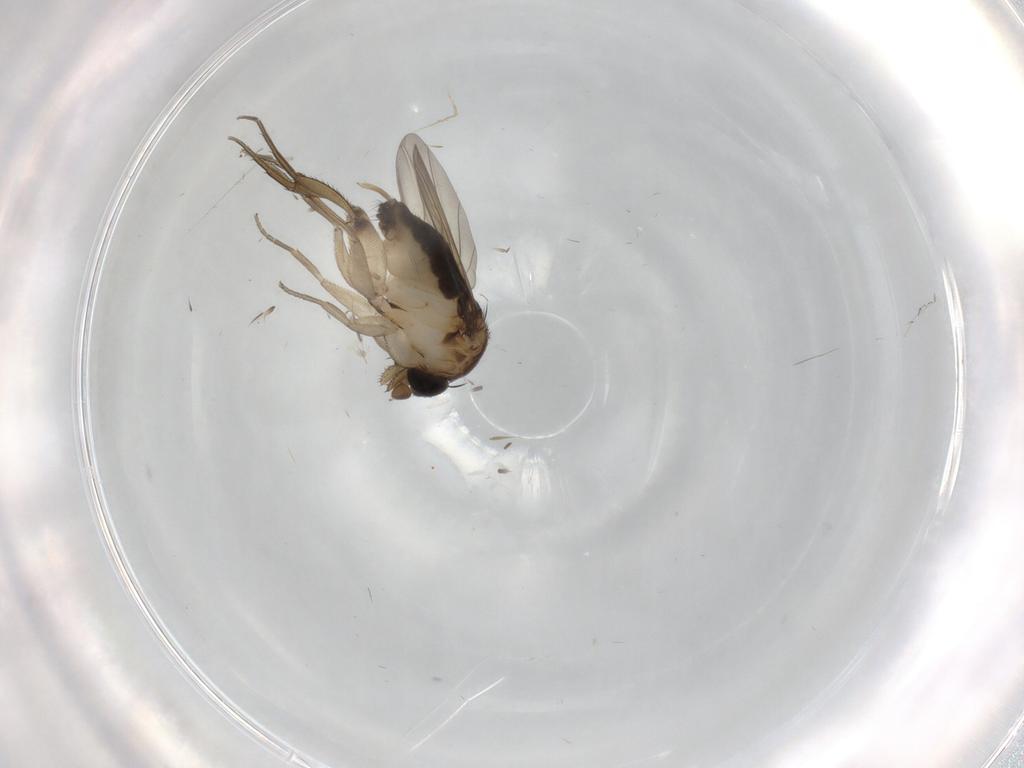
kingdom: Animalia
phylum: Arthropoda
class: Insecta
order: Diptera
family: Phoridae
